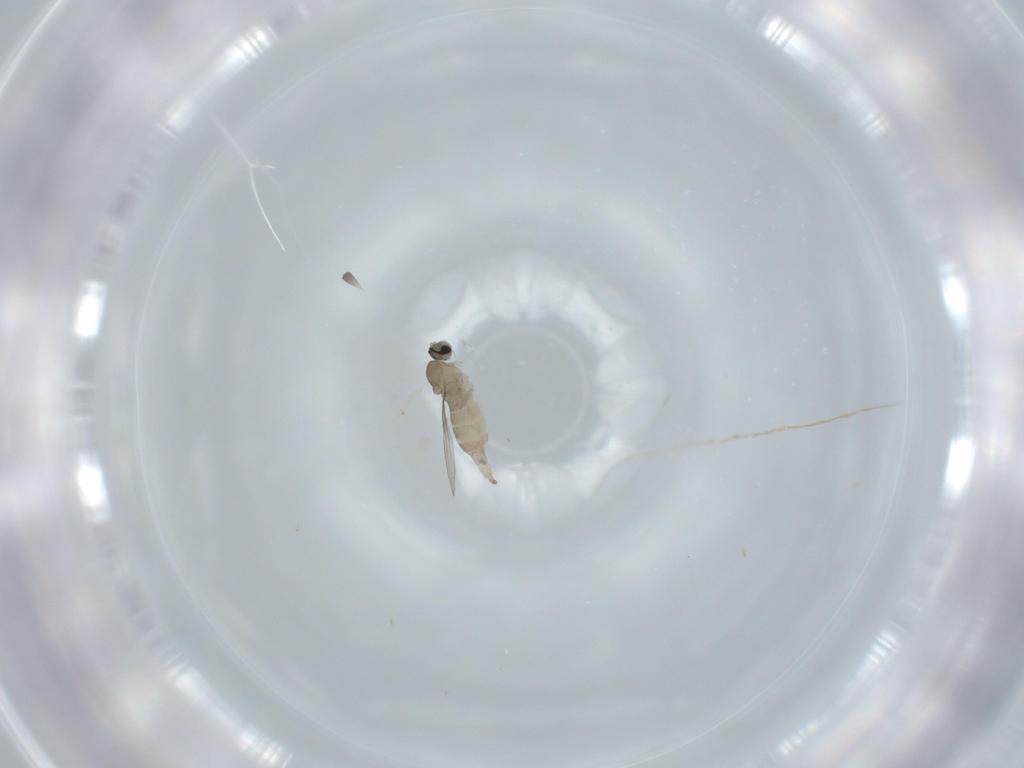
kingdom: Animalia
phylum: Arthropoda
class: Insecta
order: Diptera
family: Cecidomyiidae
